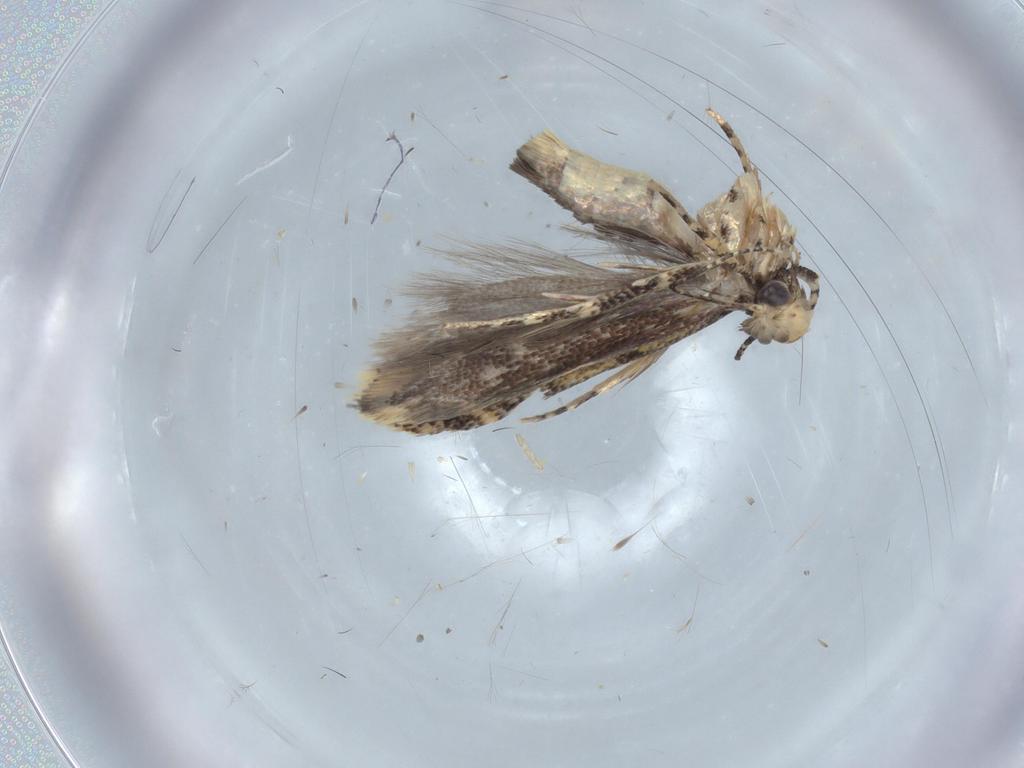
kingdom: Animalia
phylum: Arthropoda
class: Insecta
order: Lepidoptera
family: Gelechiidae
